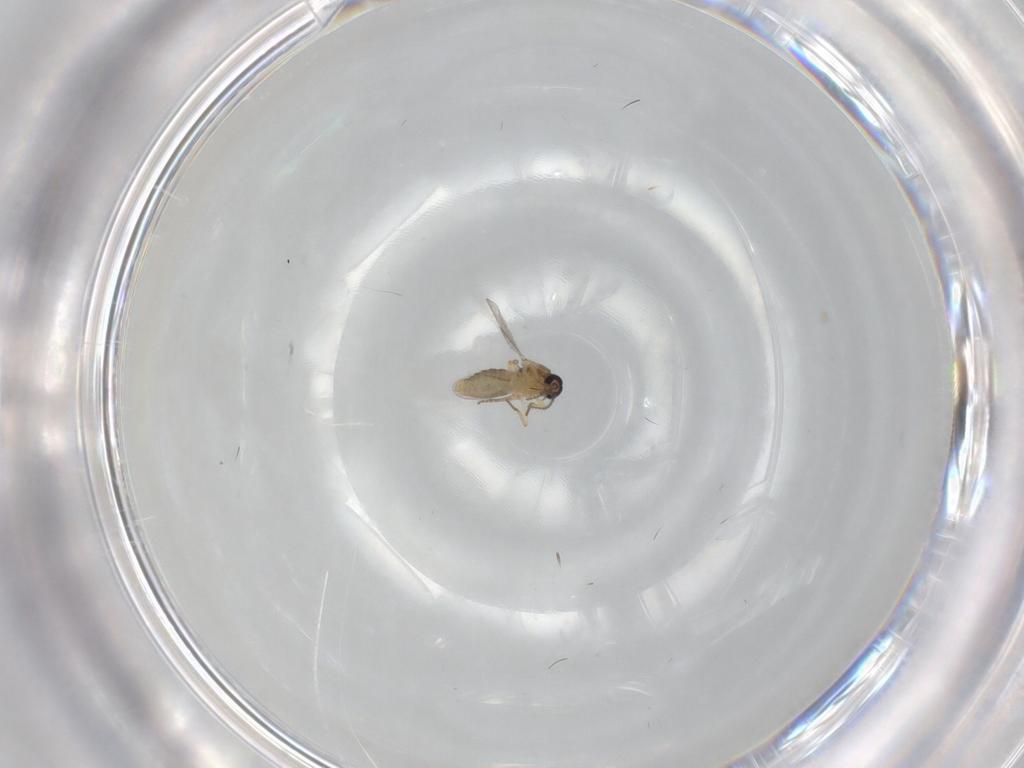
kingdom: Animalia
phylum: Arthropoda
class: Insecta
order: Diptera
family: Ceratopogonidae
